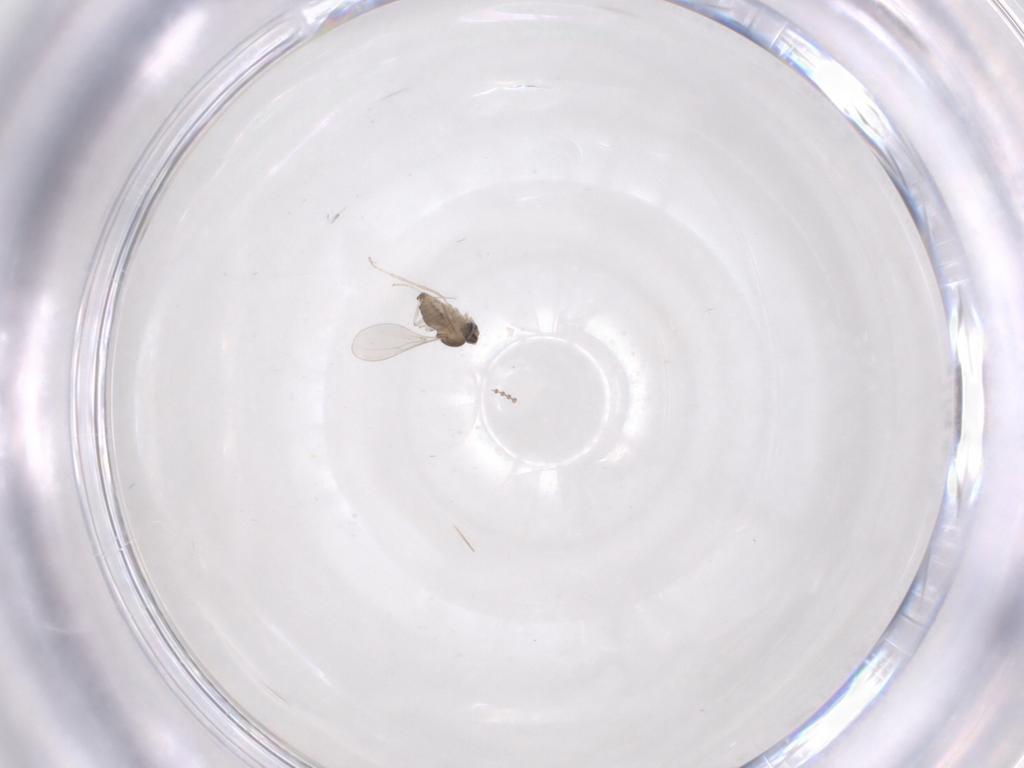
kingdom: Animalia
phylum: Arthropoda
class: Insecta
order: Diptera
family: Cecidomyiidae
